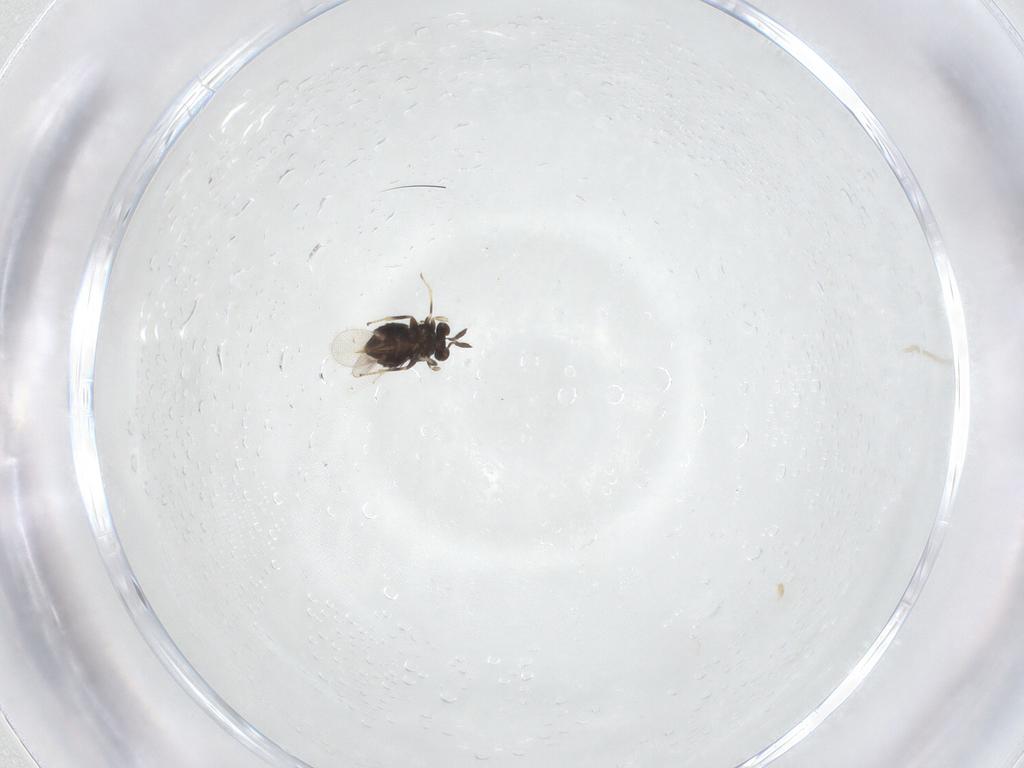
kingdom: Animalia
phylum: Arthropoda
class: Insecta
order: Hymenoptera
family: Aphelinidae
